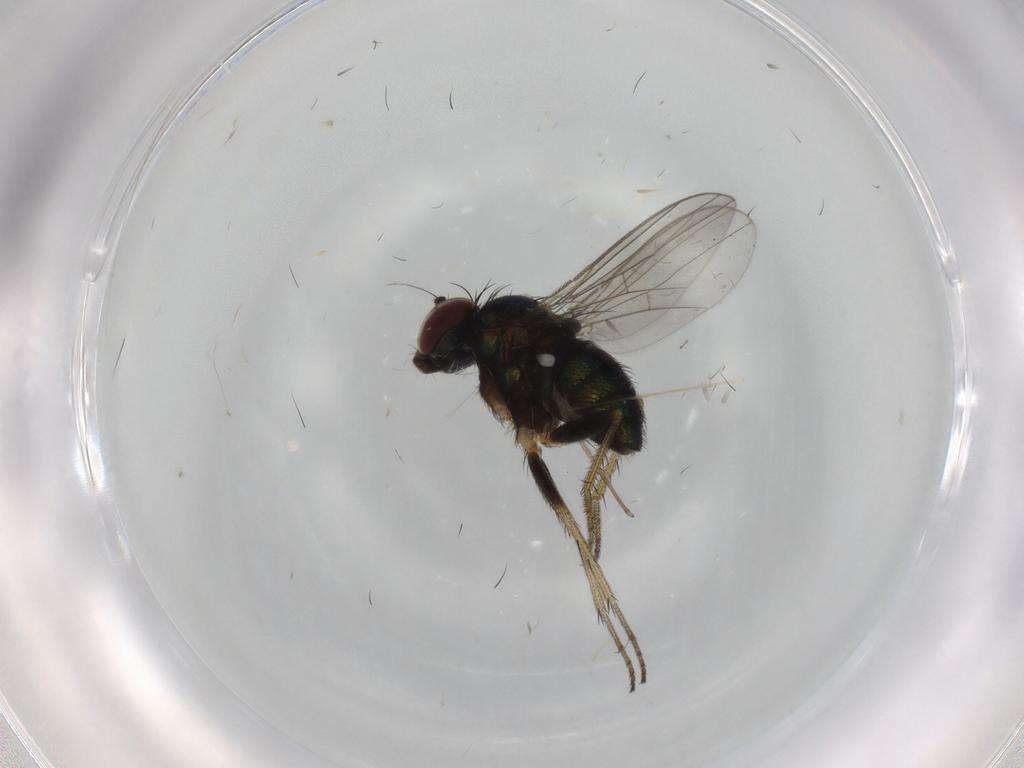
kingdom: Animalia
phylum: Arthropoda
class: Insecta
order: Diptera
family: Limoniidae
